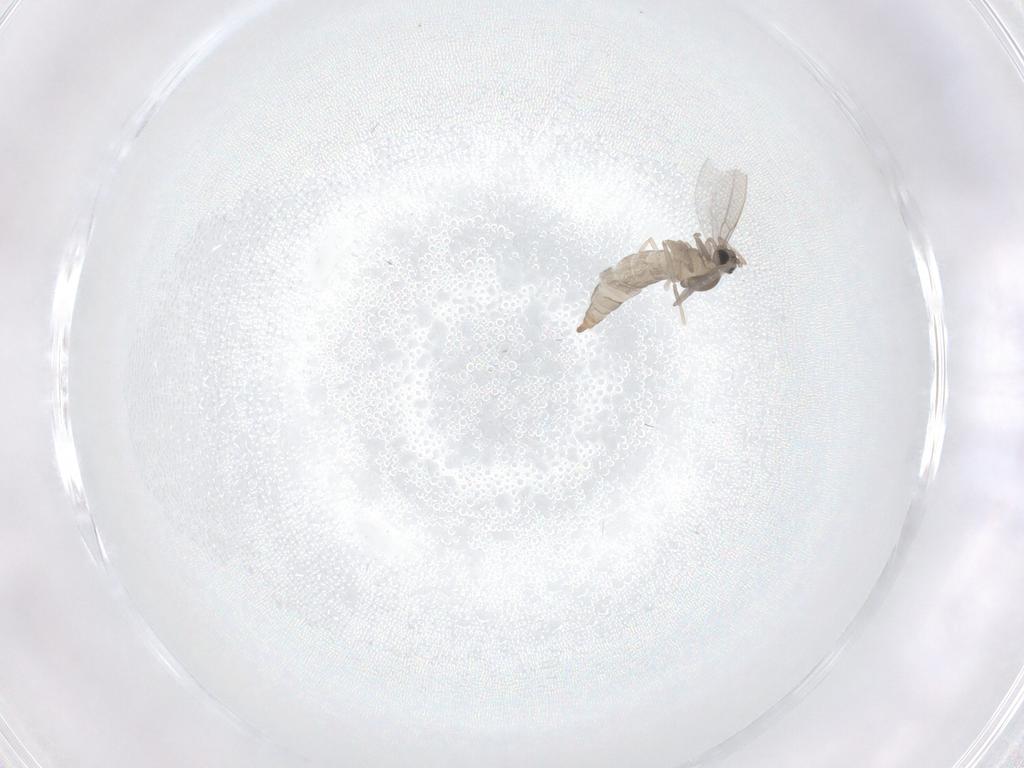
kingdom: Animalia
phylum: Arthropoda
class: Insecta
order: Diptera
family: Cecidomyiidae
